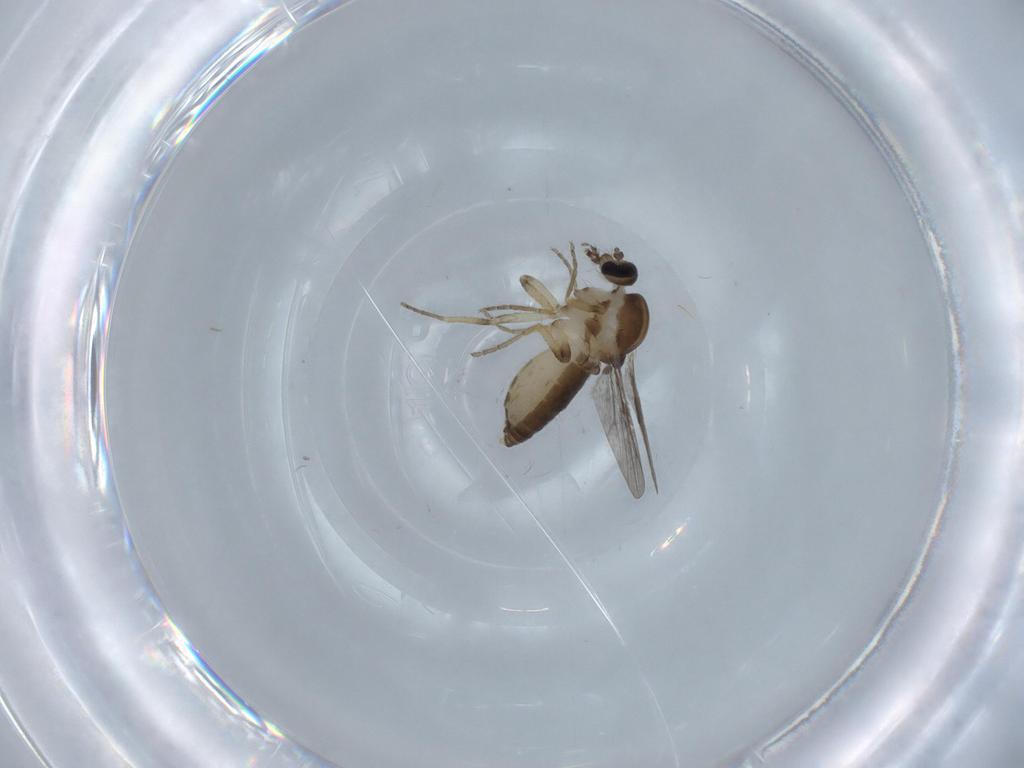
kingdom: Animalia
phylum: Arthropoda
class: Insecta
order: Diptera
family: Ceratopogonidae
